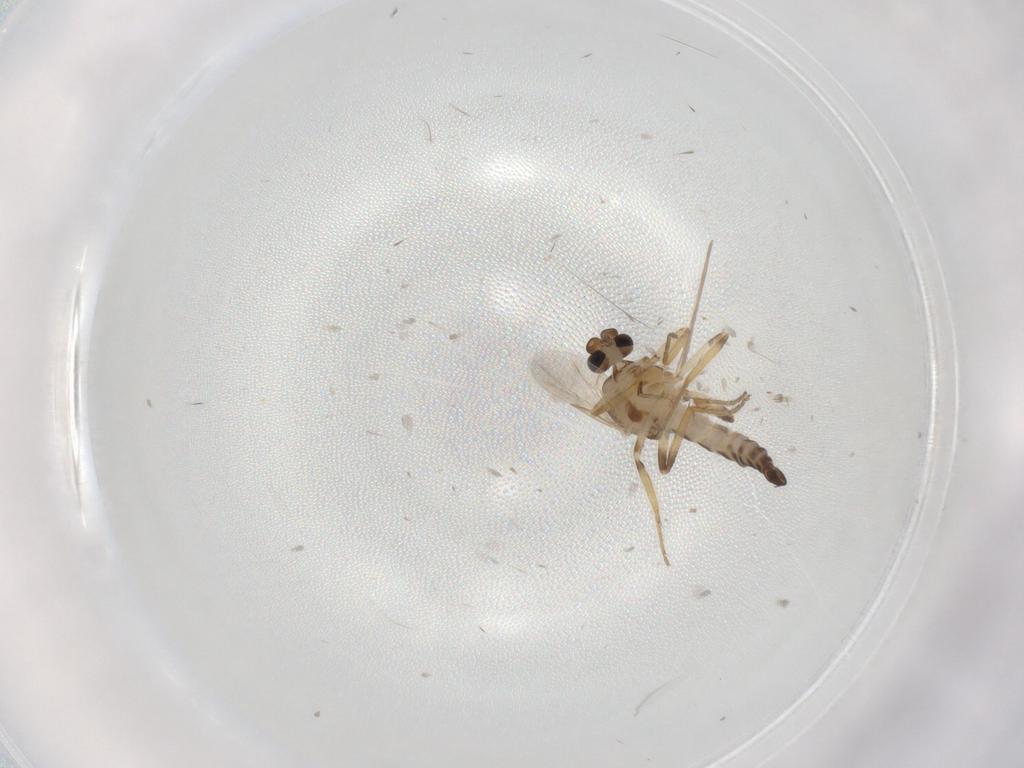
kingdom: Animalia
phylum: Arthropoda
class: Insecta
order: Diptera
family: Ceratopogonidae
